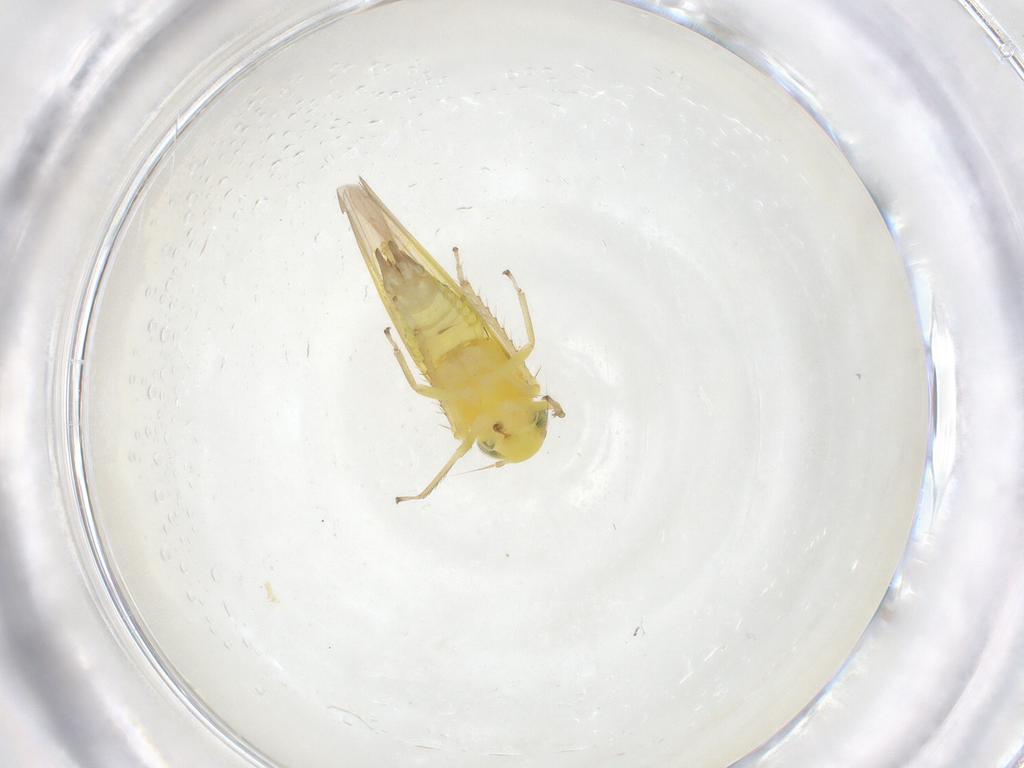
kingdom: Animalia
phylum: Arthropoda
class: Insecta
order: Hemiptera
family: Cicadellidae
